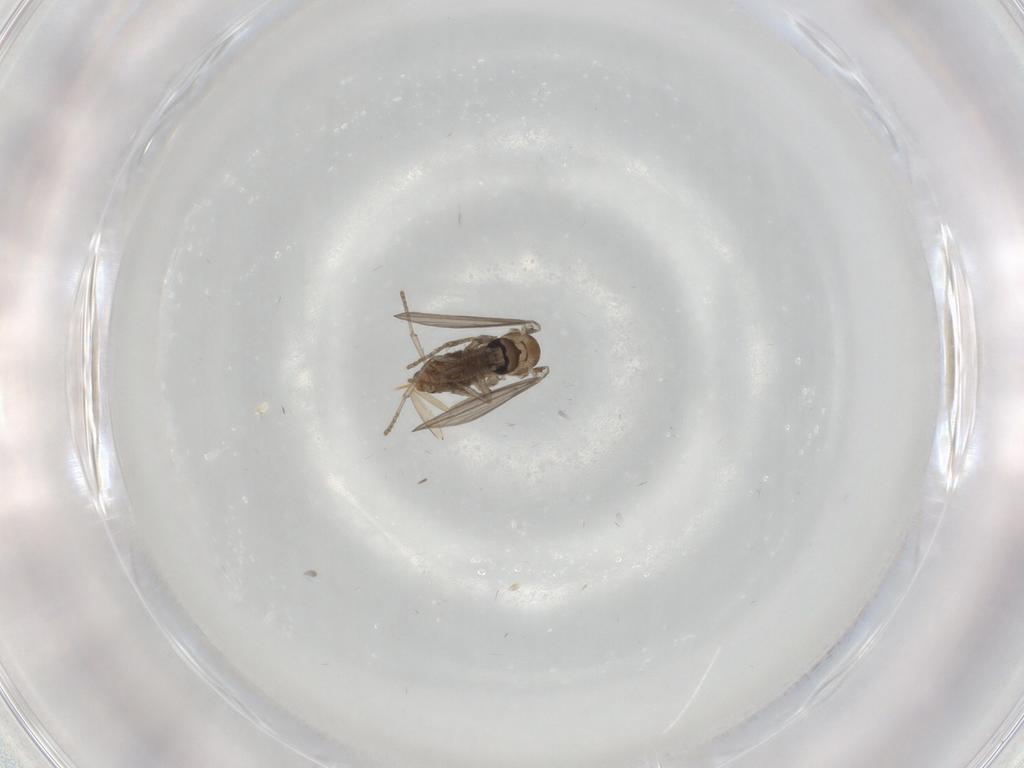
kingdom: Animalia
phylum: Arthropoda
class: Insecta
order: Diptera
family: Psychodidae
